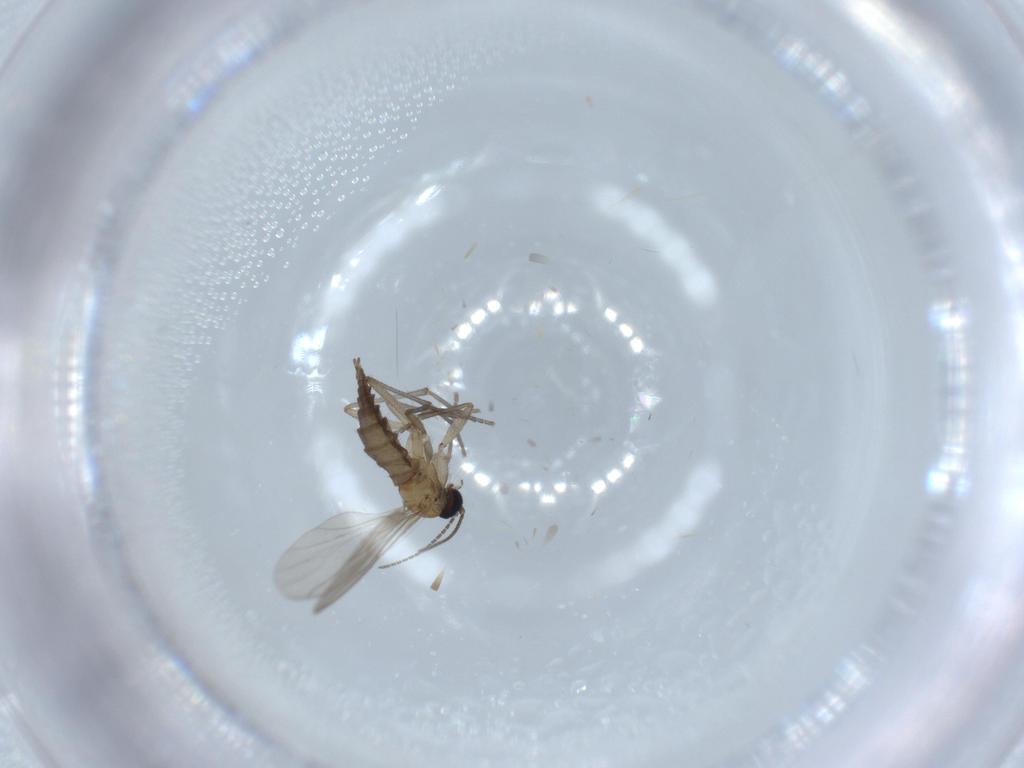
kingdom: Animalia
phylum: Arthropoda
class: Insecta
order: Diptera
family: Sciaridae
